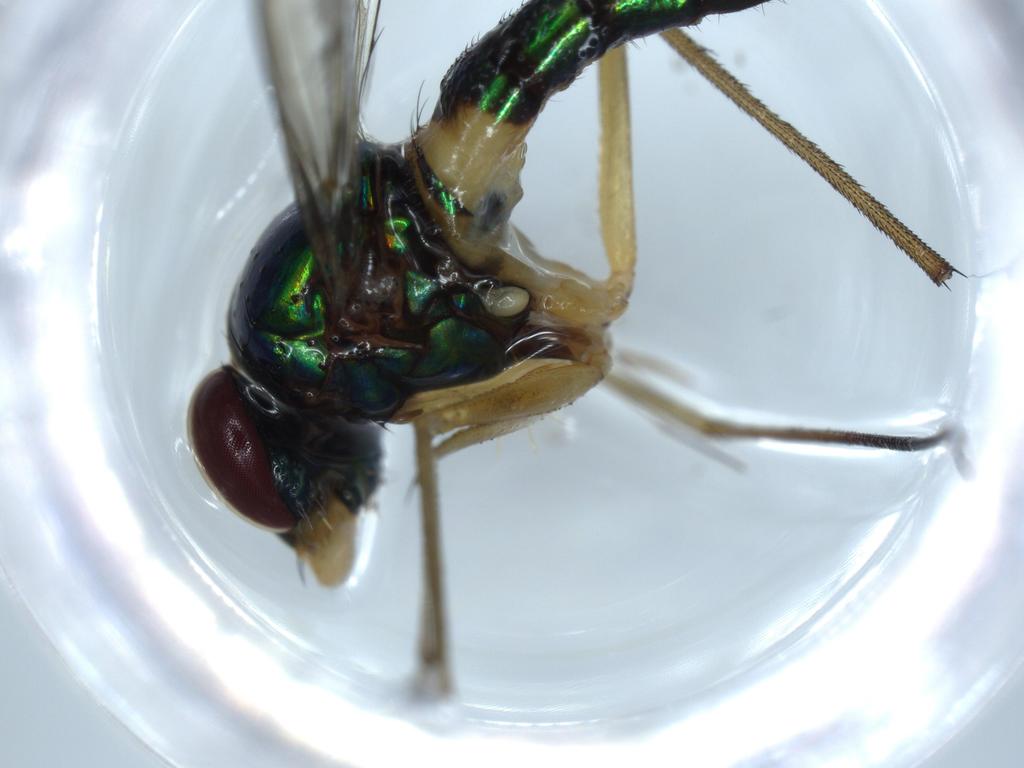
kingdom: Animalia
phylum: Arthropoda
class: Insecta
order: Diptera
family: Dolichopodidae
